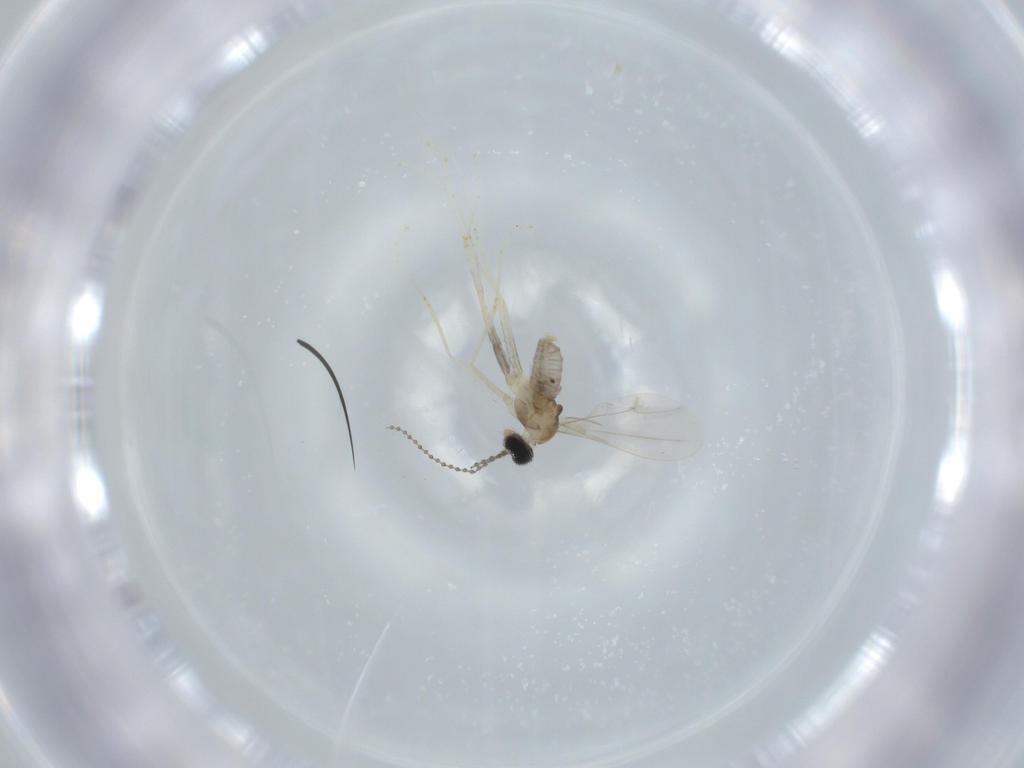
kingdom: Animalia
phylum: Arthropoda
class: Insecta
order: Diptera
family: Cecidomyiidae
